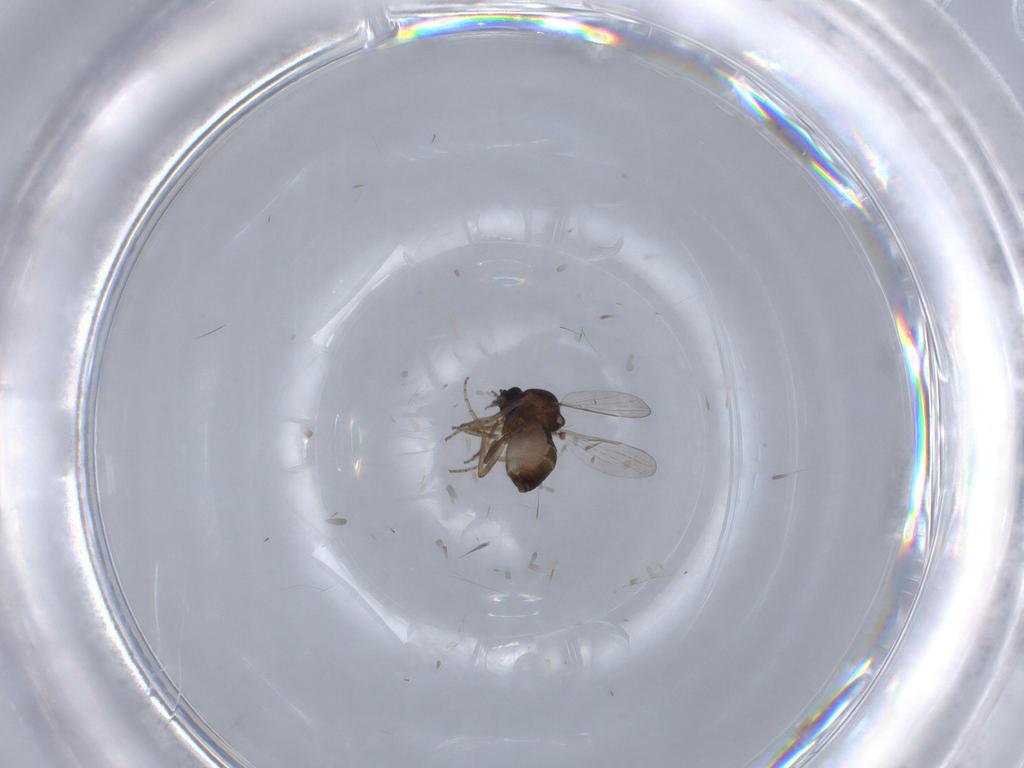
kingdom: Animalia
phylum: Arthropoda
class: Insecta
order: Diptera
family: Ceratopogonidae
